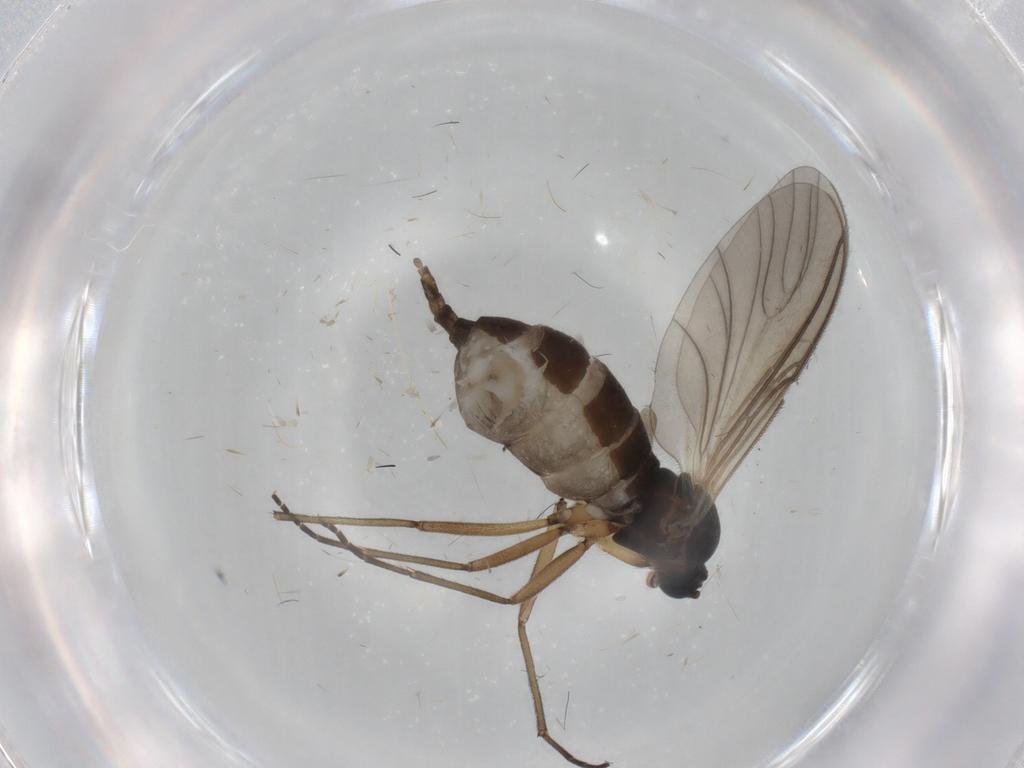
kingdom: Animalia
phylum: Arthropoda
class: Insecta
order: Diptera
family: Sciaridae
